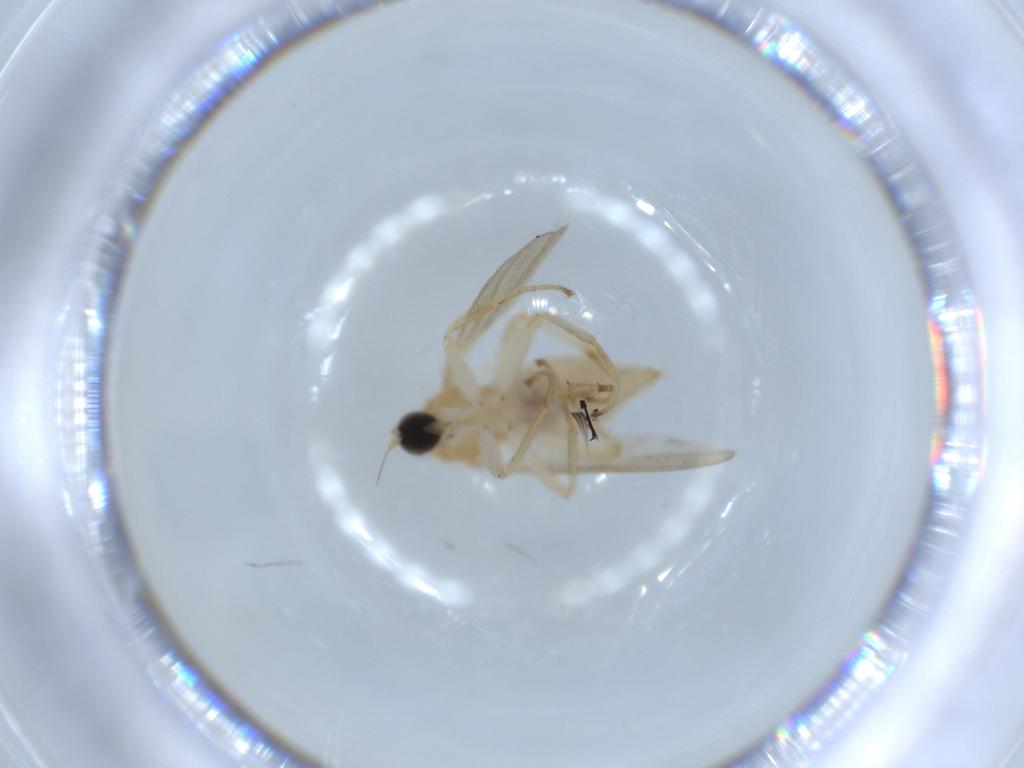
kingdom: Animalia
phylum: Arthropoda
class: Insecta
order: Diptera
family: Hybotidae
